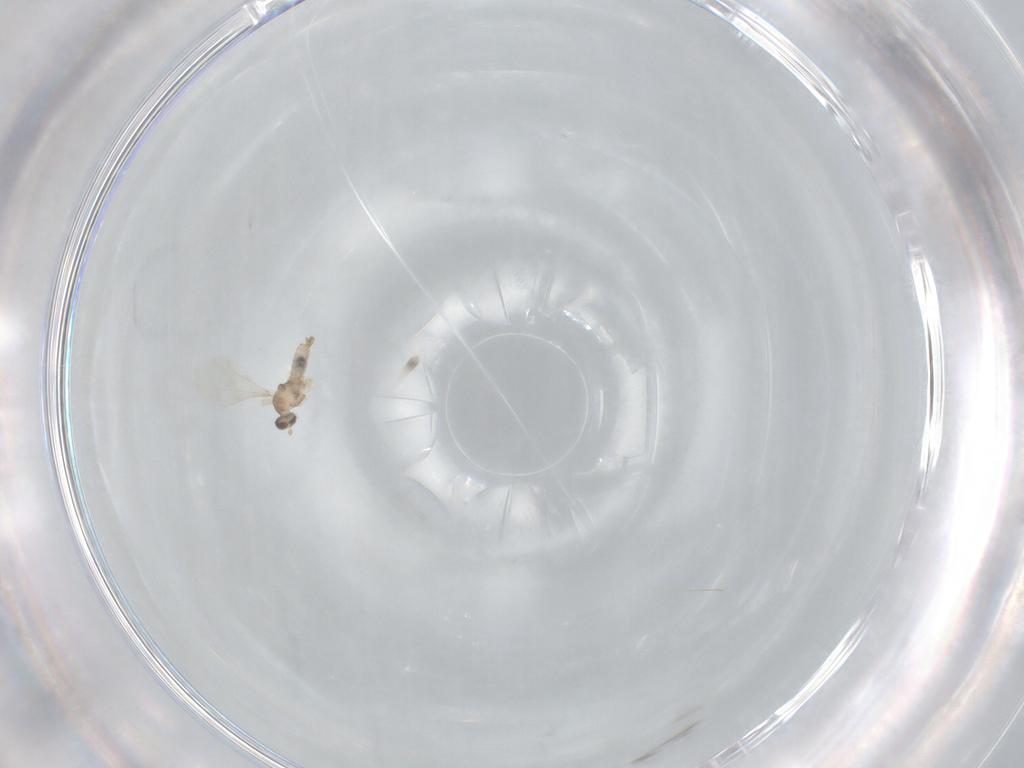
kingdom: Animalia
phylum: Arthropoda
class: Insecta
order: Diptera
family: Cecidomyiidae
